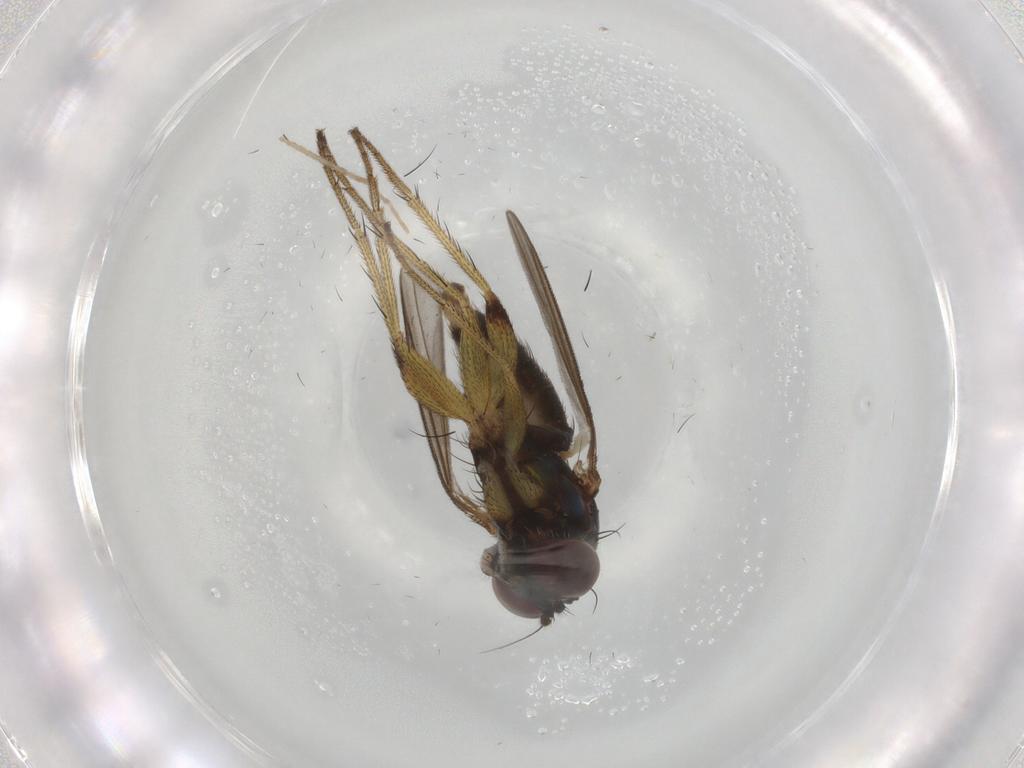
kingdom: Animalia
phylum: Arthropoda
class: Insecta
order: Diptera
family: Dolichopodidae
